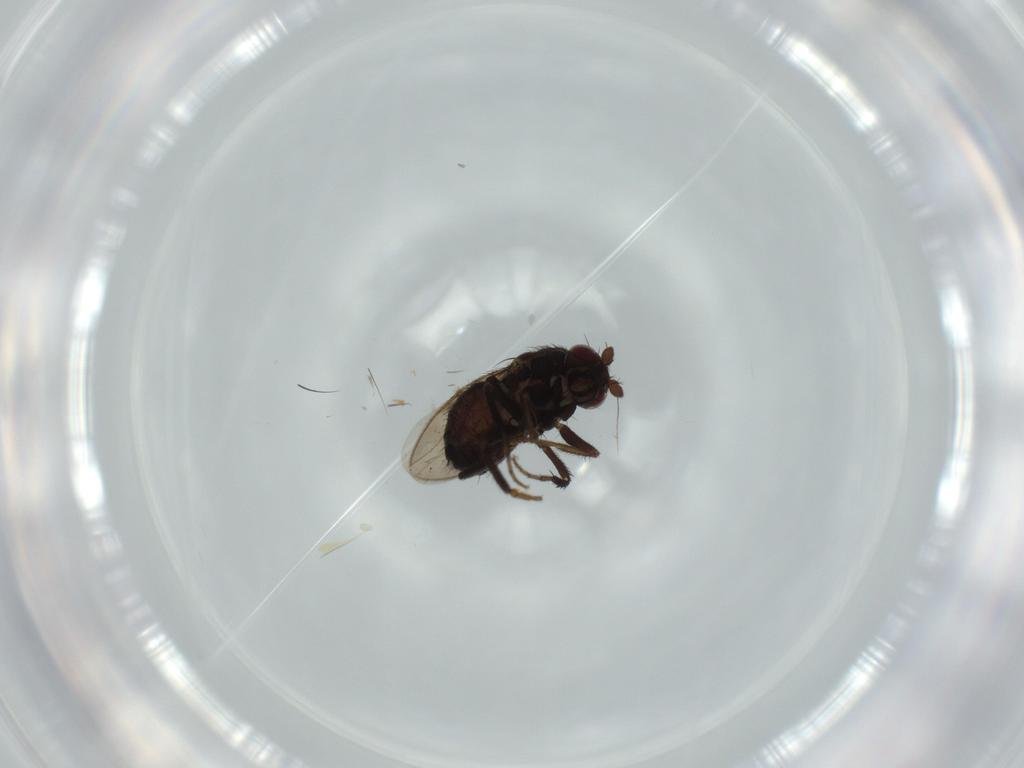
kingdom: Animalia
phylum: Arthropoda
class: Insecta
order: Diptera
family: Sphaeroceridae
